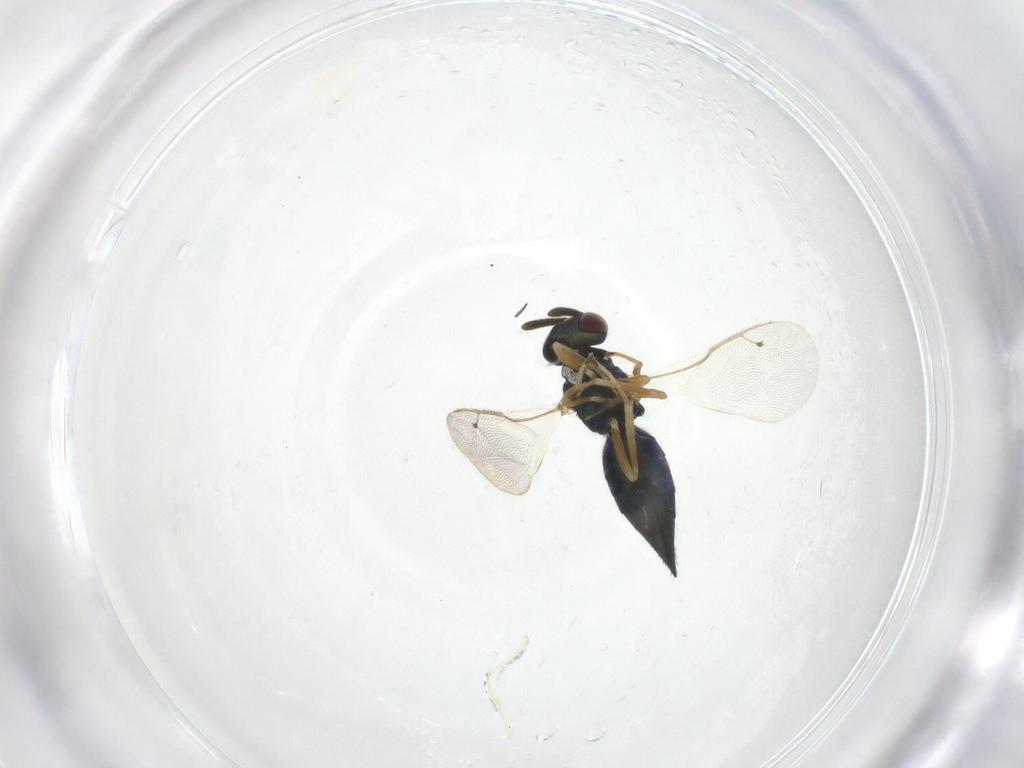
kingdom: Animalia
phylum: Arthropoda
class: Insecta
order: Hymenoptera
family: Pteromalidae
